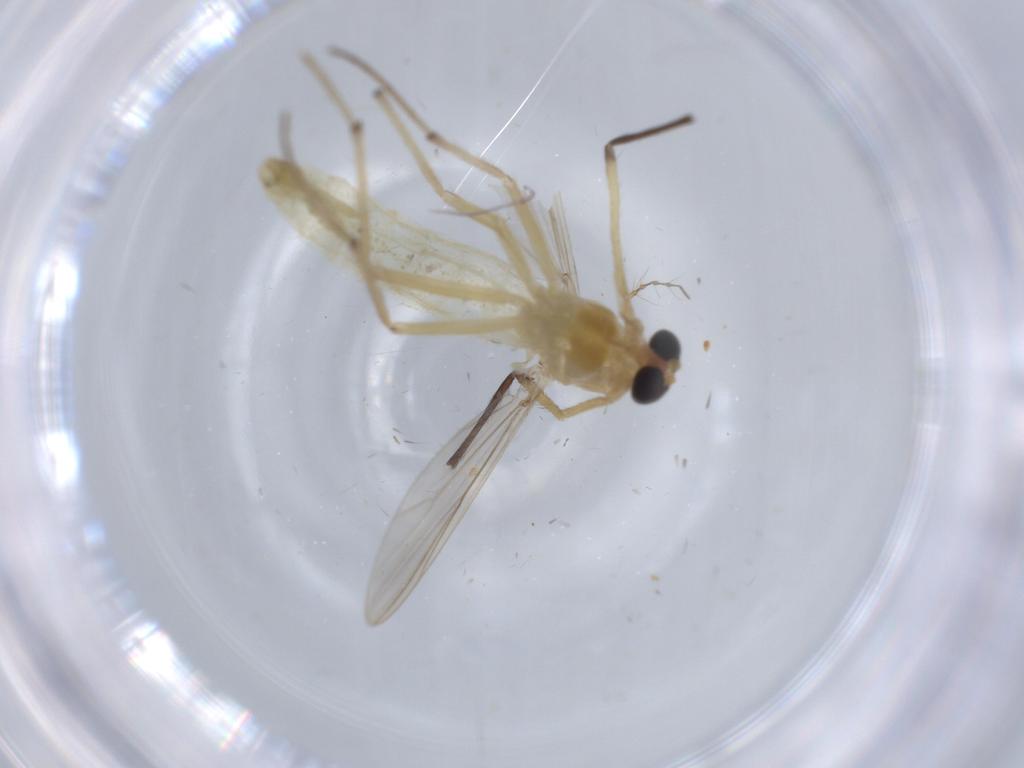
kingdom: Animalia
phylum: Arthropoda
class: Insecta
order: Diptera
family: Chironomidae
